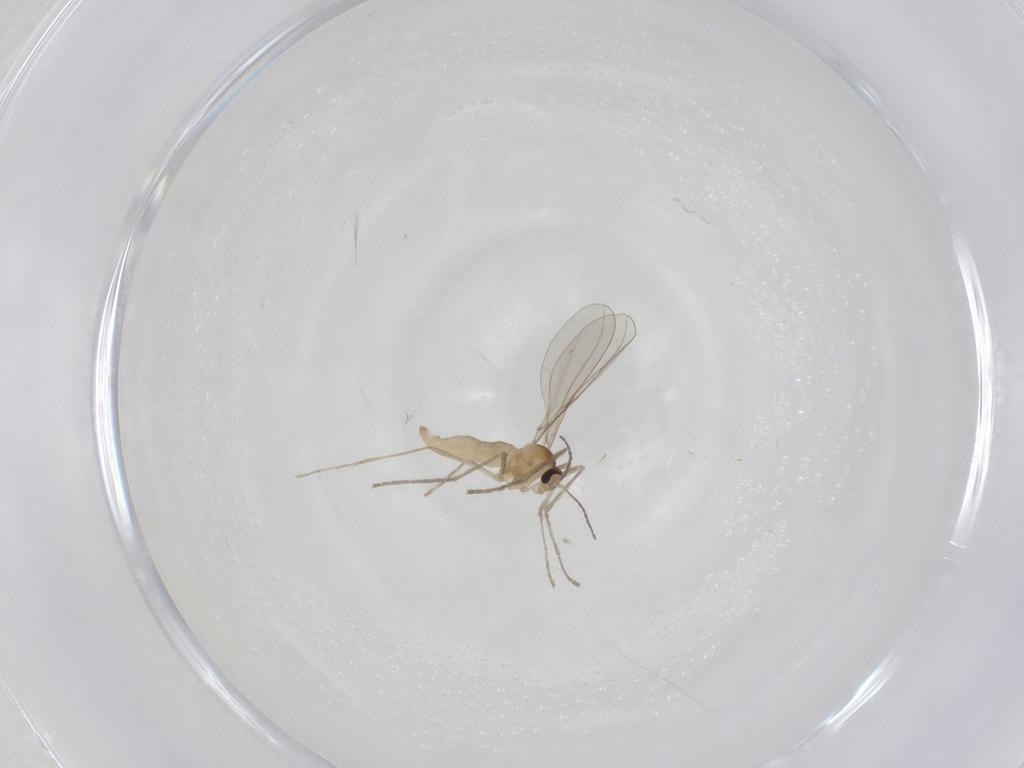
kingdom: Animalia
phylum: Arthropoda
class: Insecta
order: Diptera
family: Cecidomyiidae
